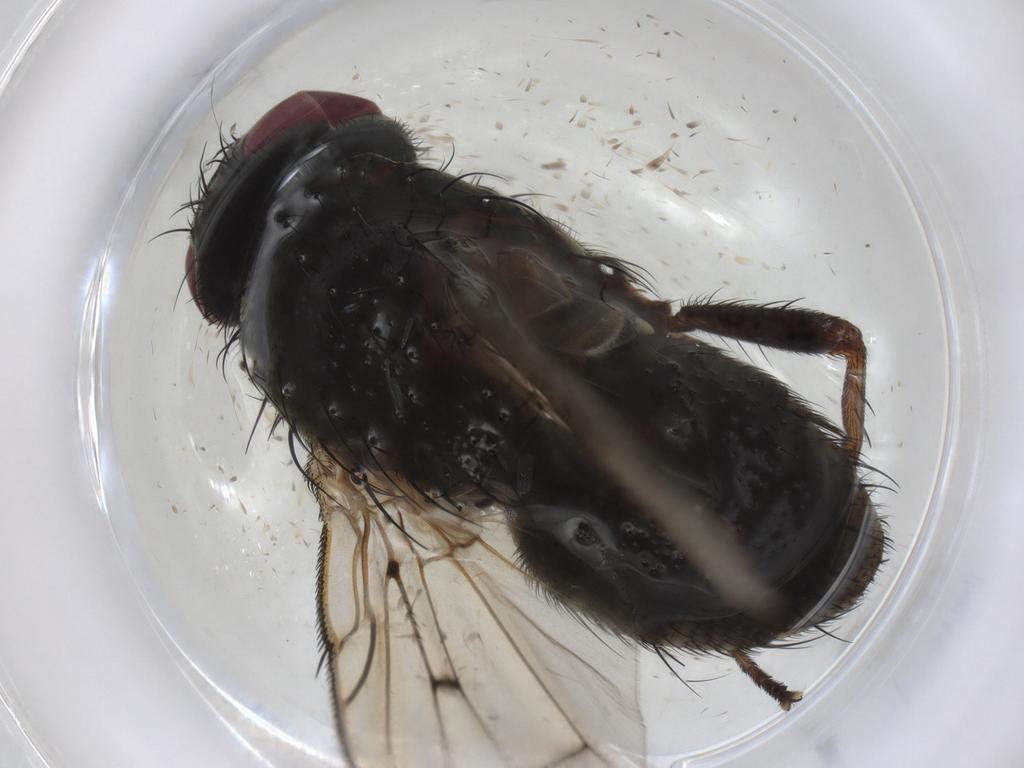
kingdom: Animalia
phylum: Arthropoda
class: Insecta
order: Diptera
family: Tachinidae
